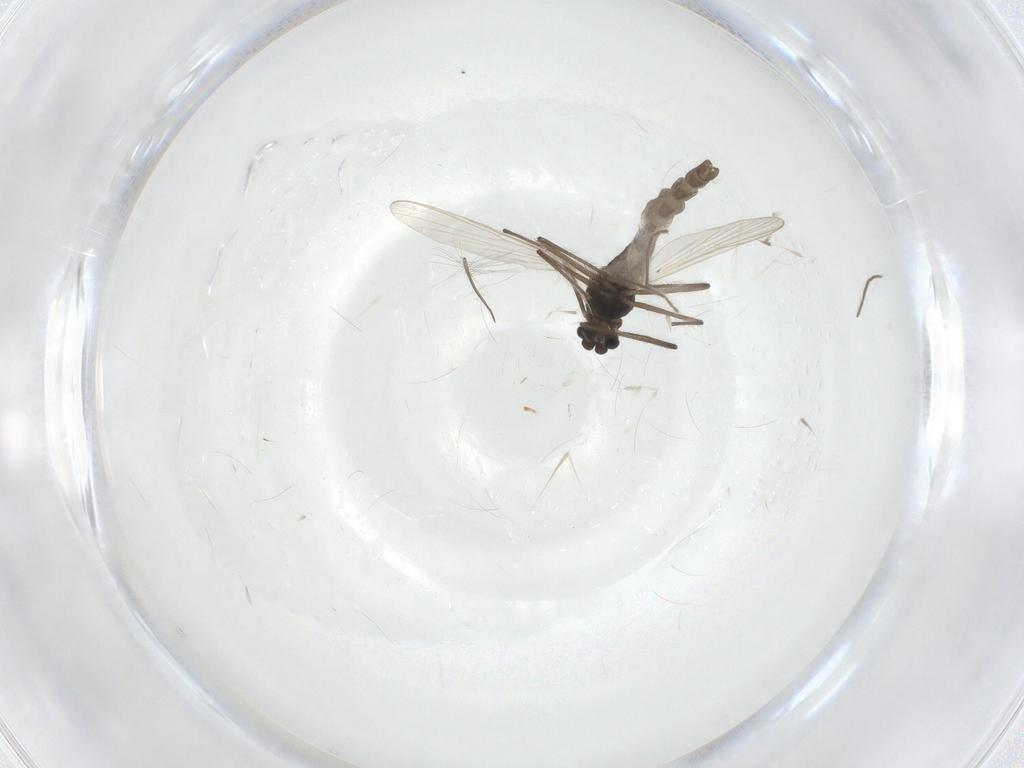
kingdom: Animalia
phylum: Arthropoda
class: Insecta
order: Diptera
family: Chironomidae
